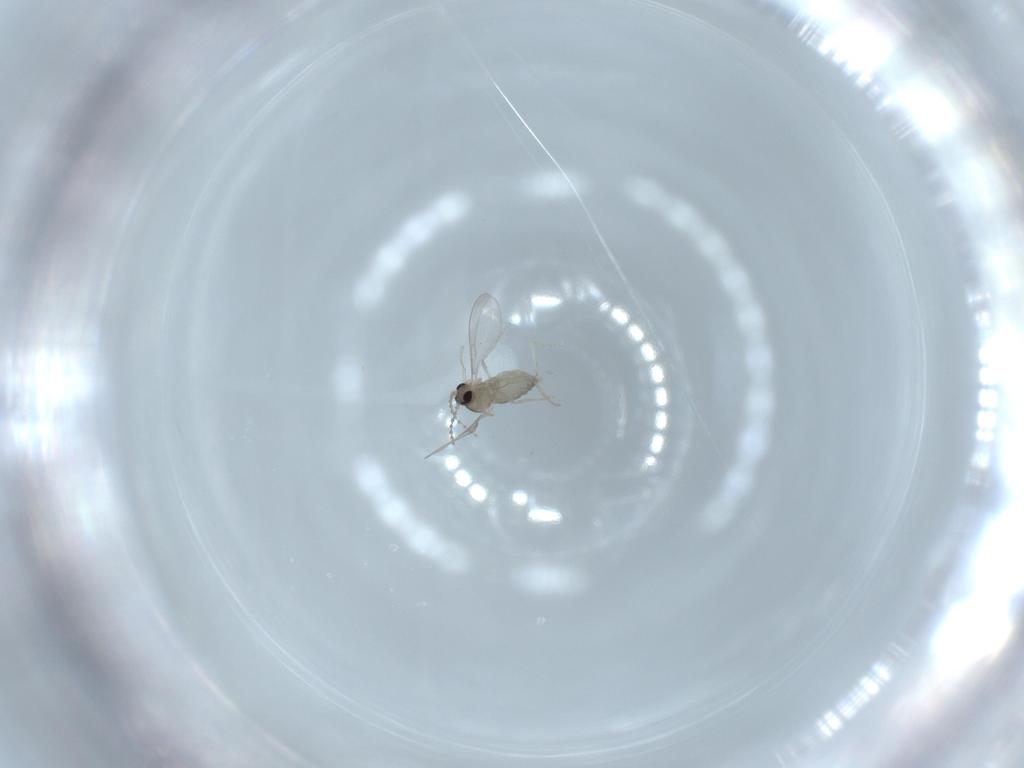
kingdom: Animalia
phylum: Arthropoda
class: Insecta
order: Diptera
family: Cecidomyiidae
